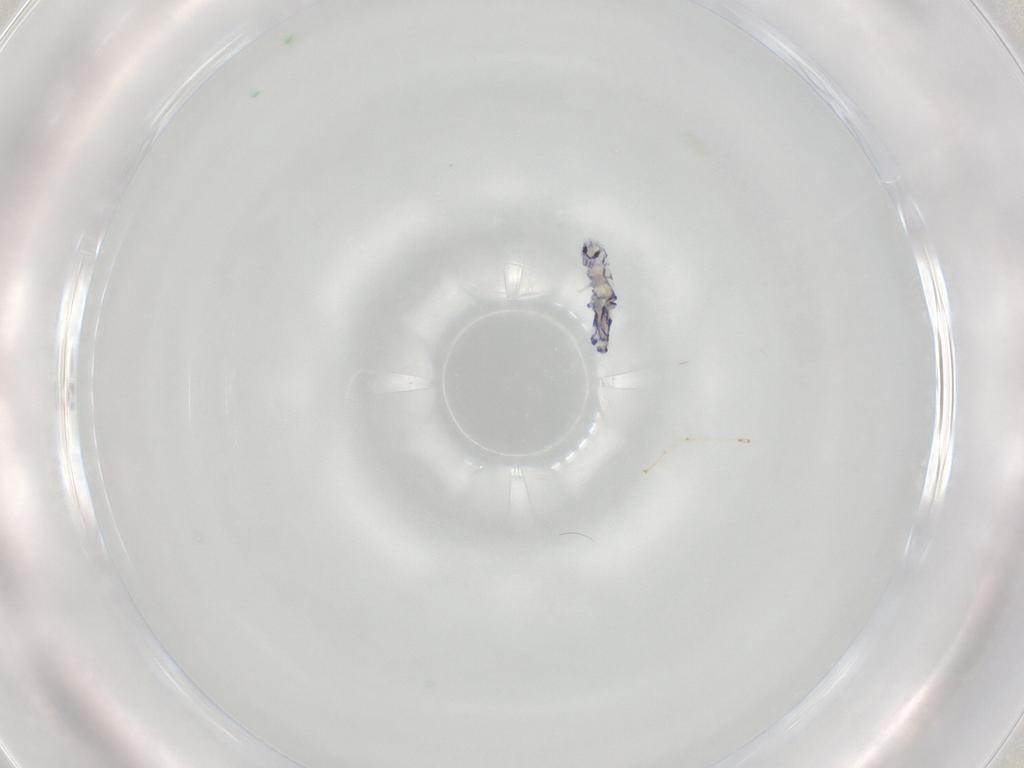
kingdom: Animalia
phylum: Arthropoda
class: Collembola
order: Entomobryomorpha
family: Entomobryidae
